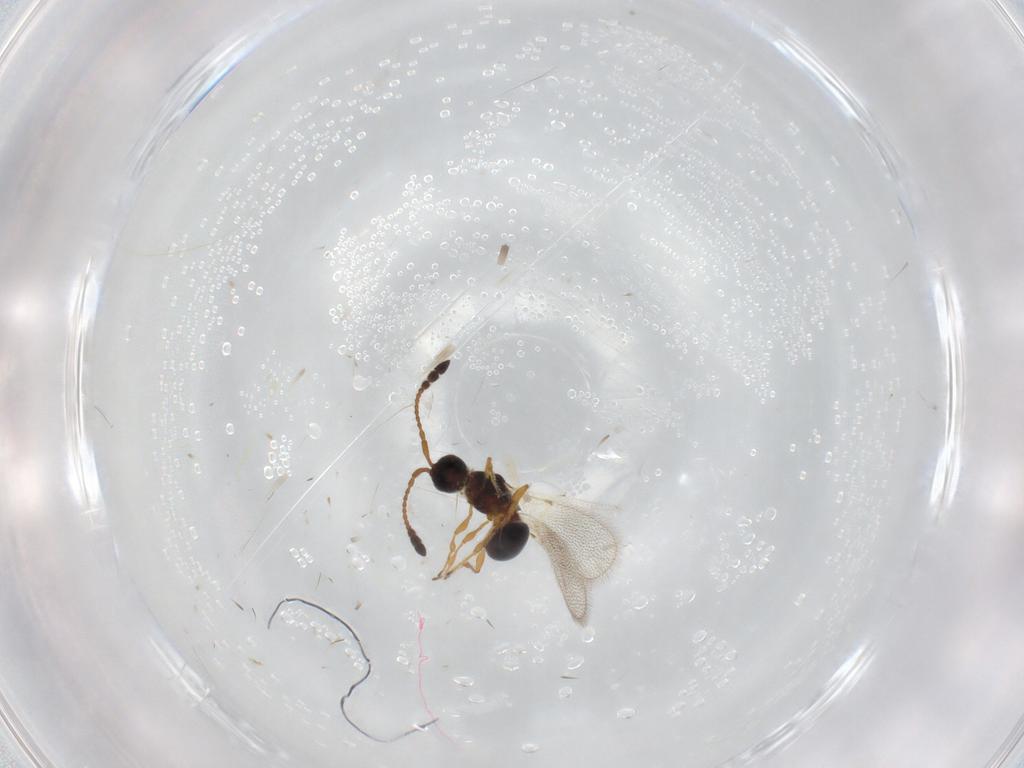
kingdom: Animalia
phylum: Arthropoda
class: Insecta
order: Hymenoptera
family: Diapriidae
